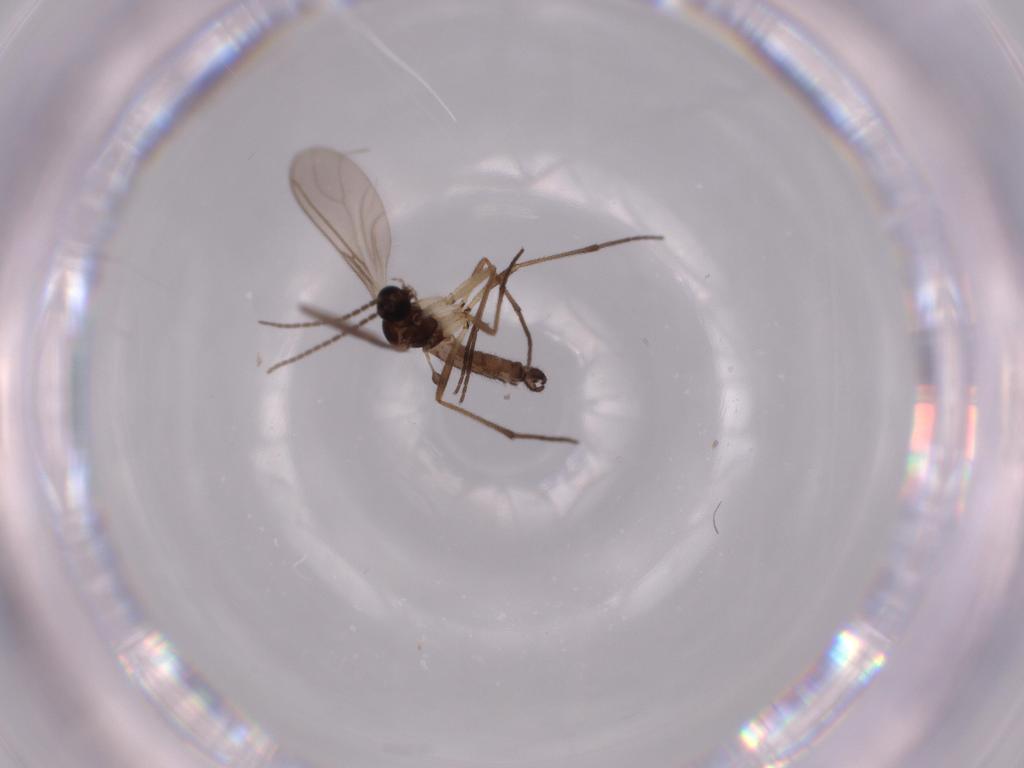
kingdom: Animalia
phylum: Arthropoda
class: Insecta
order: Diptera
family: Sciaridae
